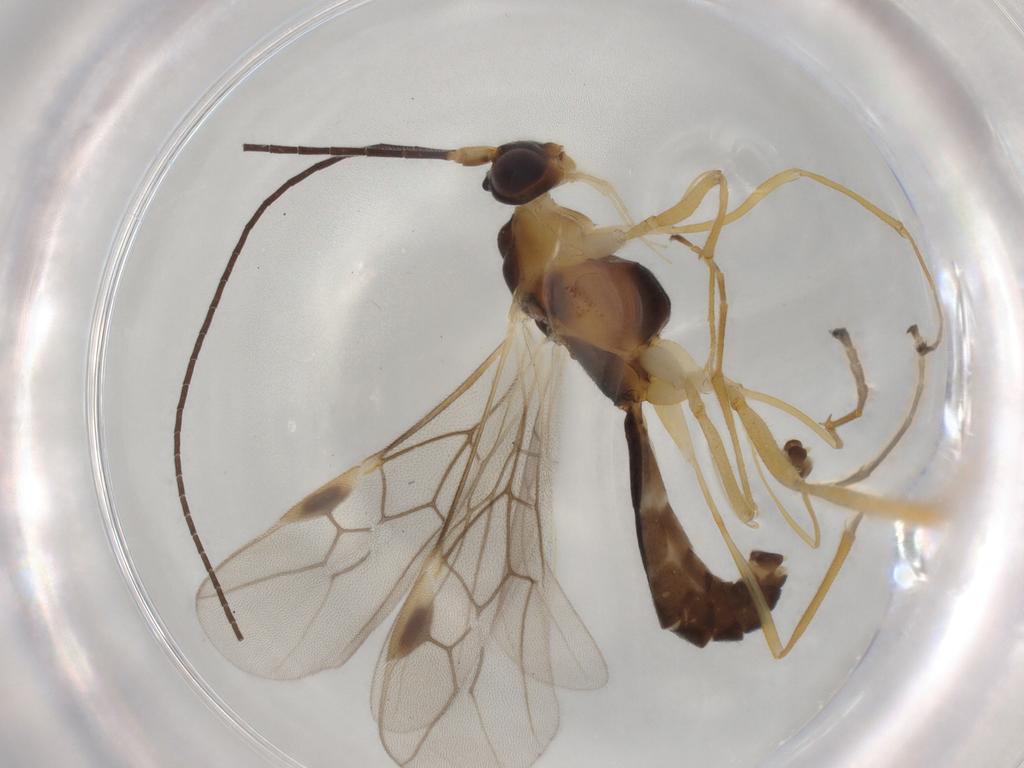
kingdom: Animalia
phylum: Arthropoda
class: Insecta
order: Hymenoptera
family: Braconidae
